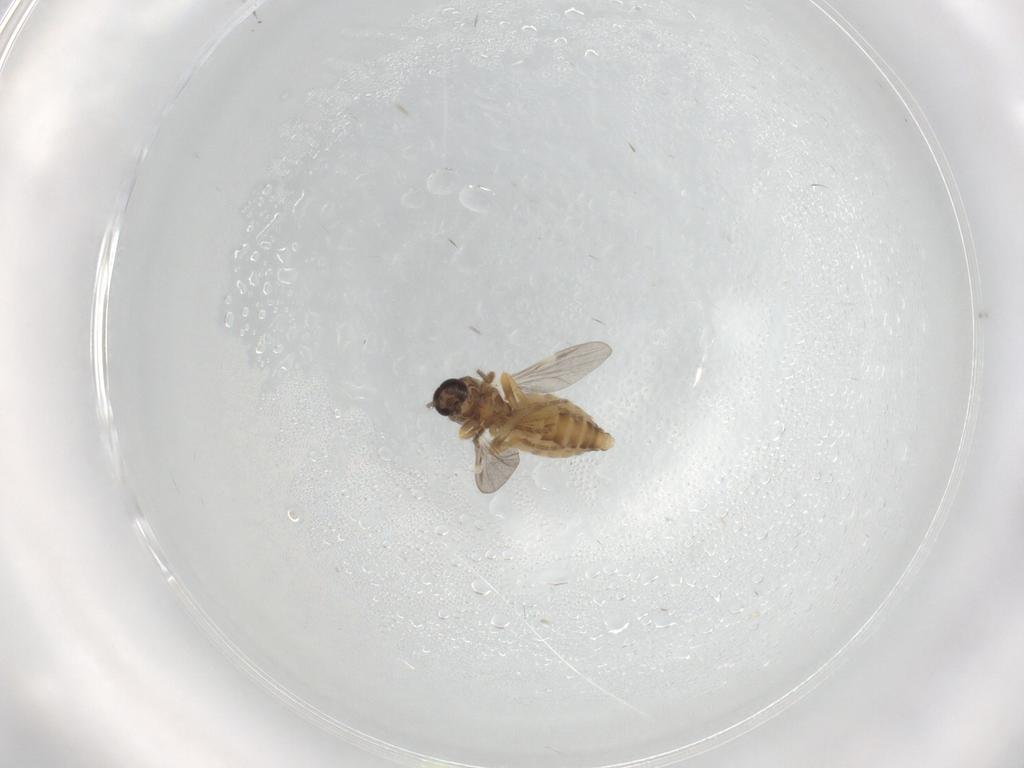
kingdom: Animalia
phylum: Arthropoda
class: Insecta
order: Diptera
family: Ceratopogonidae
